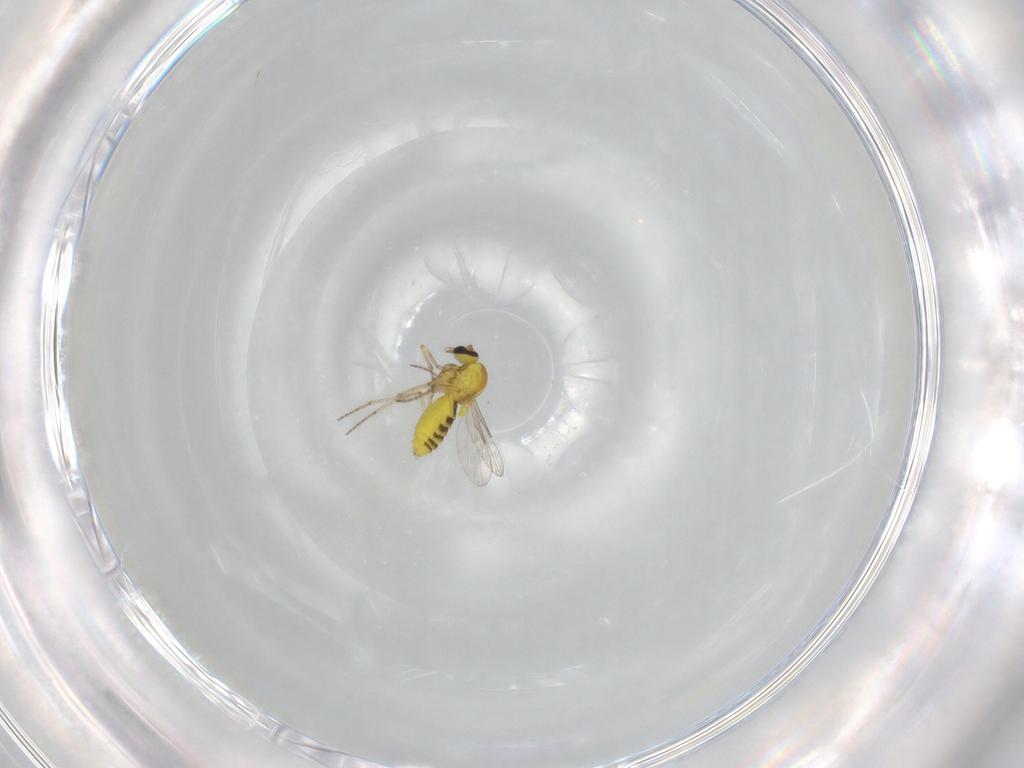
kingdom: Animalia
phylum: Arthropoda
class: Insecta
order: Diptera
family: Ceratopogonidae
